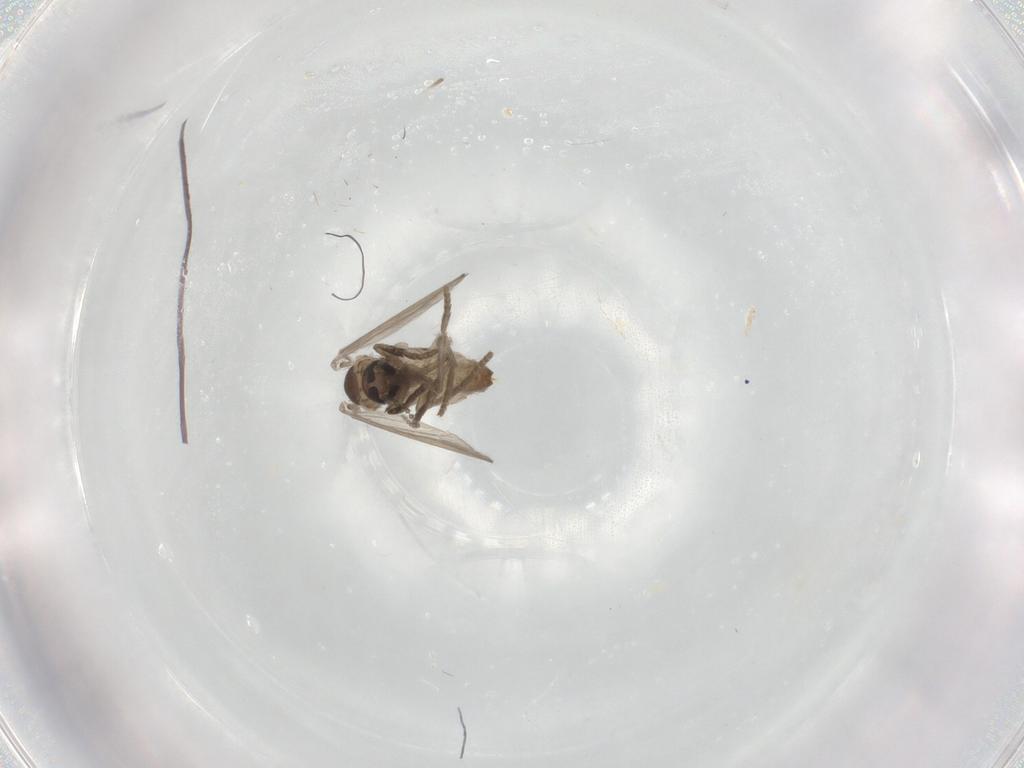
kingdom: Animalia
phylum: Arthropoda
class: Insecta
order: Diptera
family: Psychodidae
